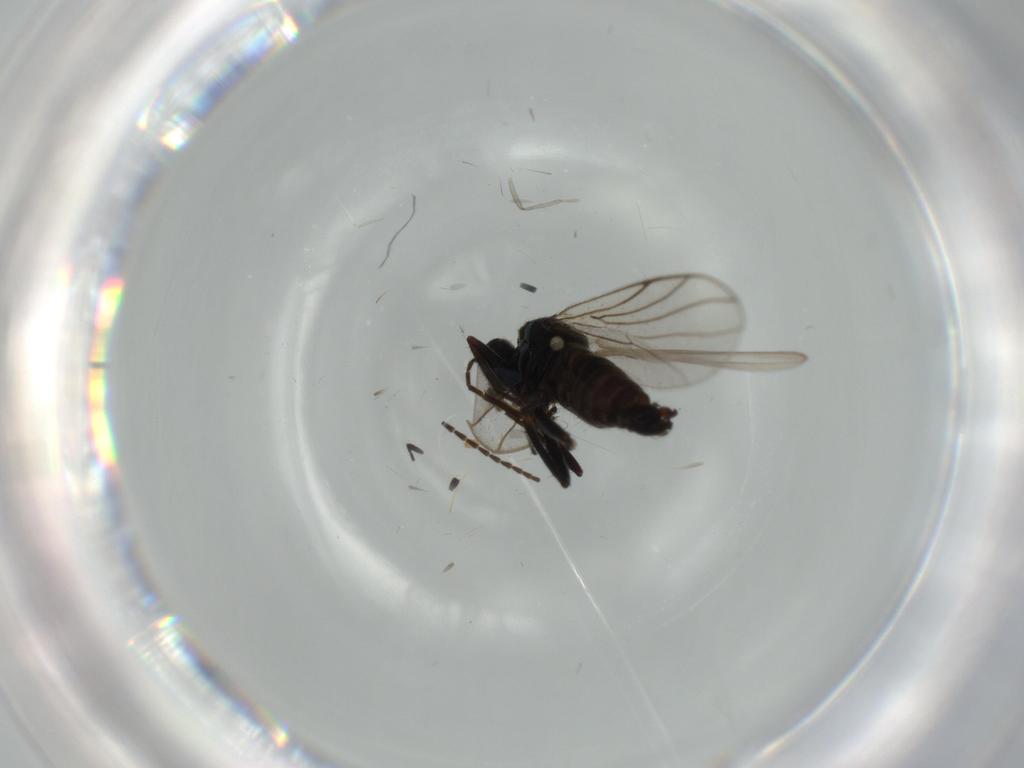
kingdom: Animalia
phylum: Arthropoda
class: Insecta
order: Diptera
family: Hybotidae
